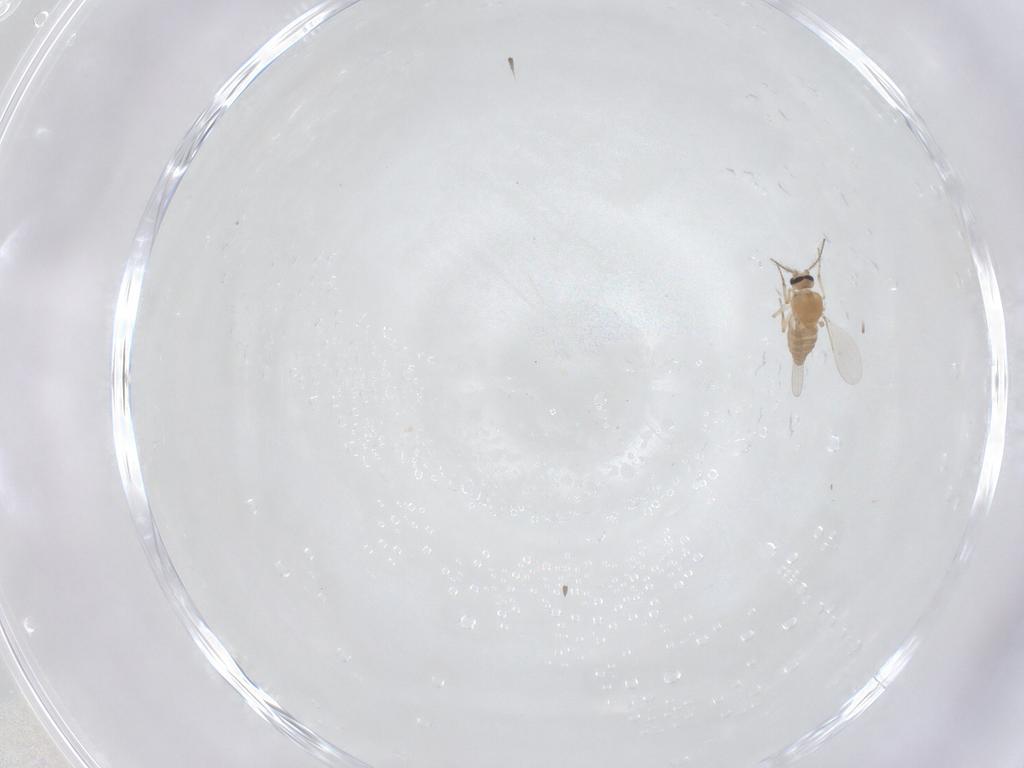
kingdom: Animalia
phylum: Arthropoda
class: Insecta
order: Diptera
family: Ceratopogonidae
